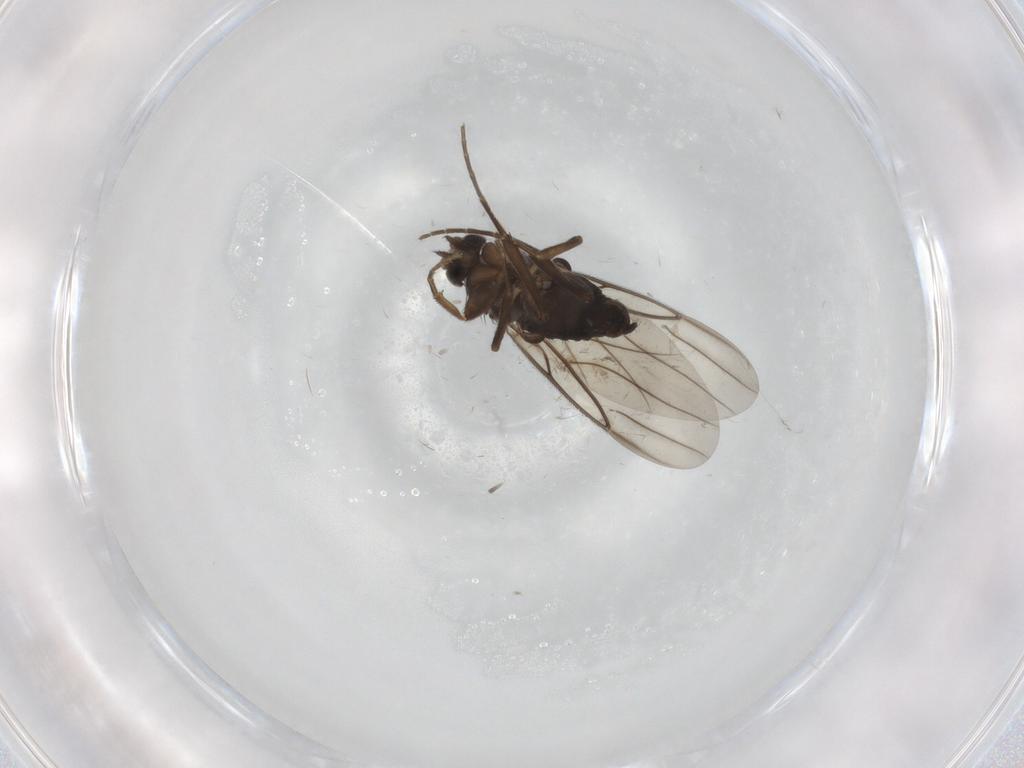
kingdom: Animalia
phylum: Arthropoda
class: Insecta
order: Diptera
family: Cecidomyiidae
